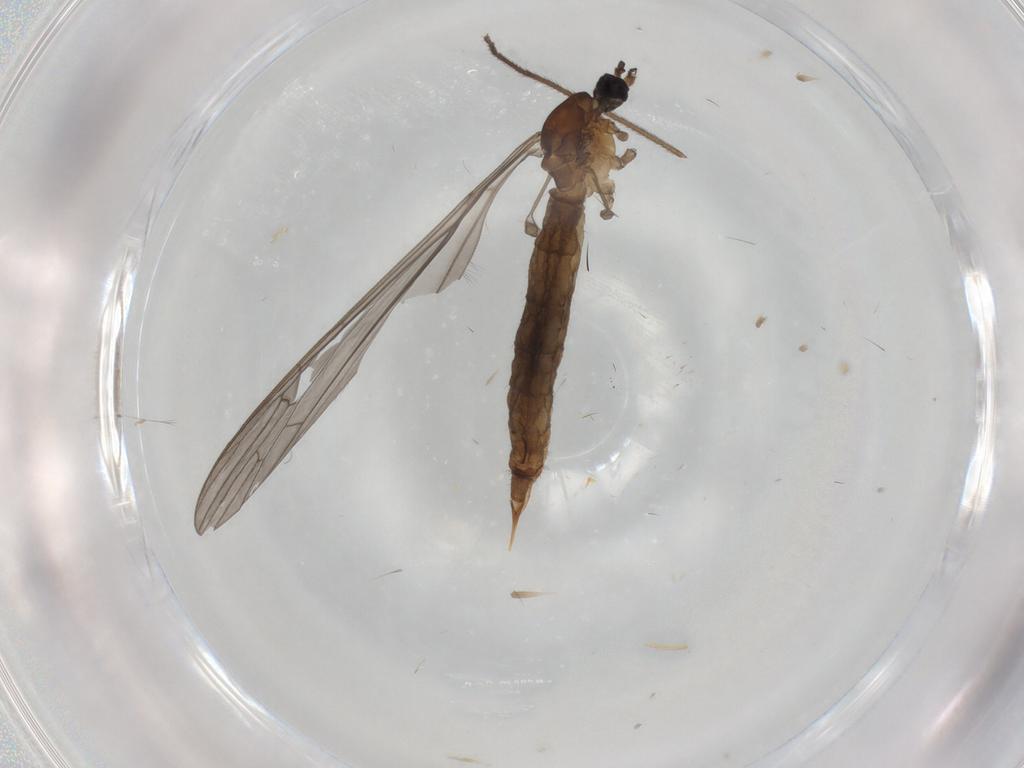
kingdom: Animalia
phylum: Arthropoda
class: Insecta
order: Diptera
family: Limoniidae
